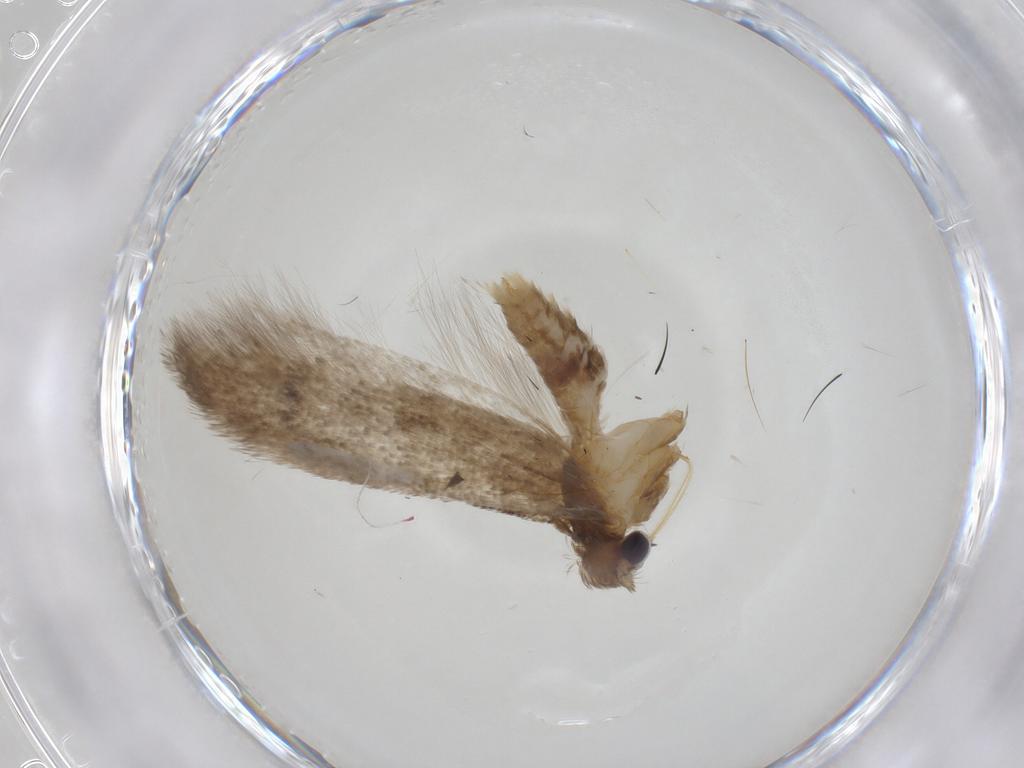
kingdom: Animalia
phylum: Arthropoda
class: Insecta
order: Lepidoptera
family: Blastobasidae
